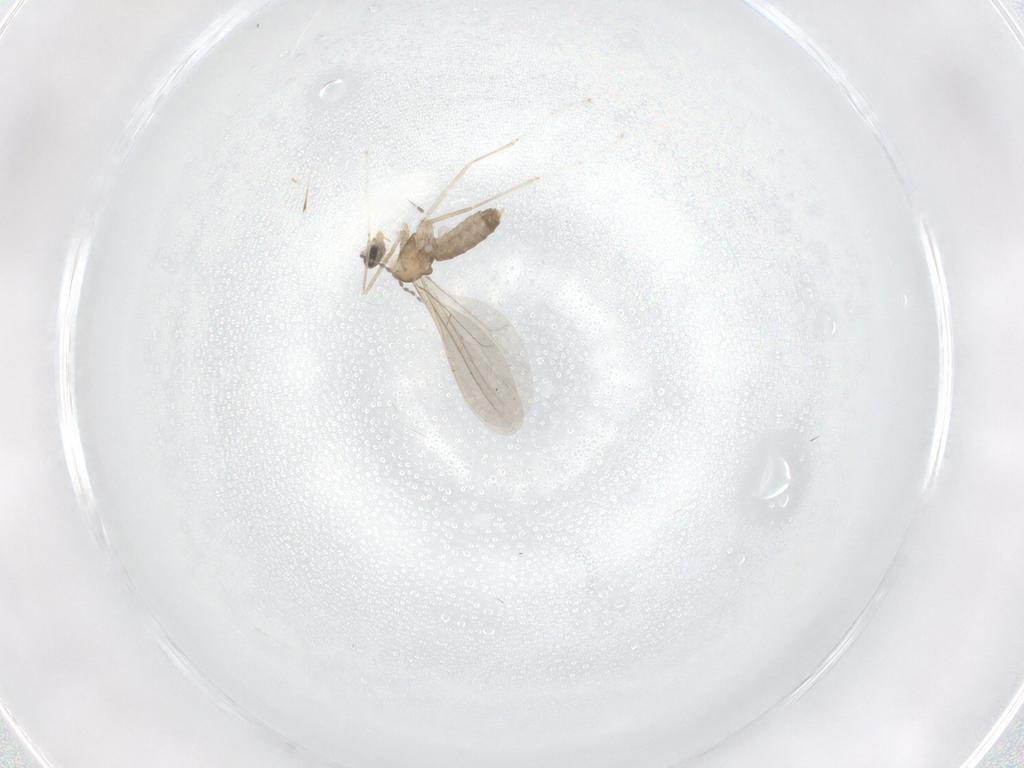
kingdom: Animalia
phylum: Arthropoda
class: Insecta
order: Diptera
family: Cecidomyiidae
